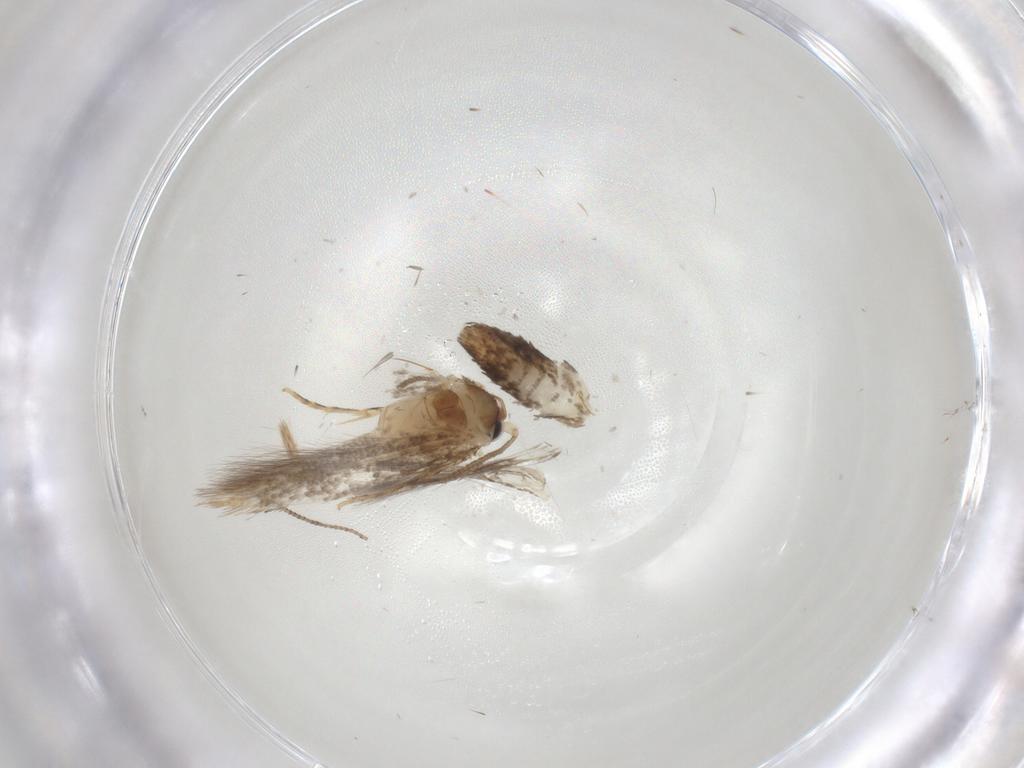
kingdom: Animalia
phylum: Arthropoda
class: Insecta
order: Lepidoptera
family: Tineidae
